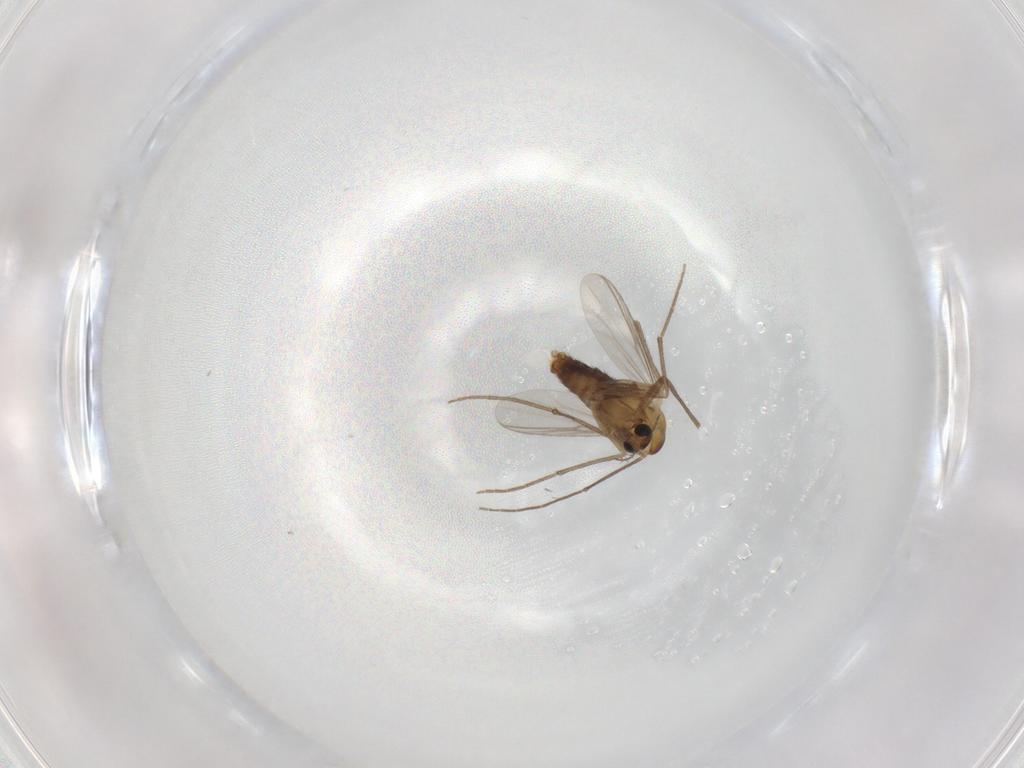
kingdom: Animalia
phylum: Arthropoda
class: Insecta
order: Diptera
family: Chironomidae
